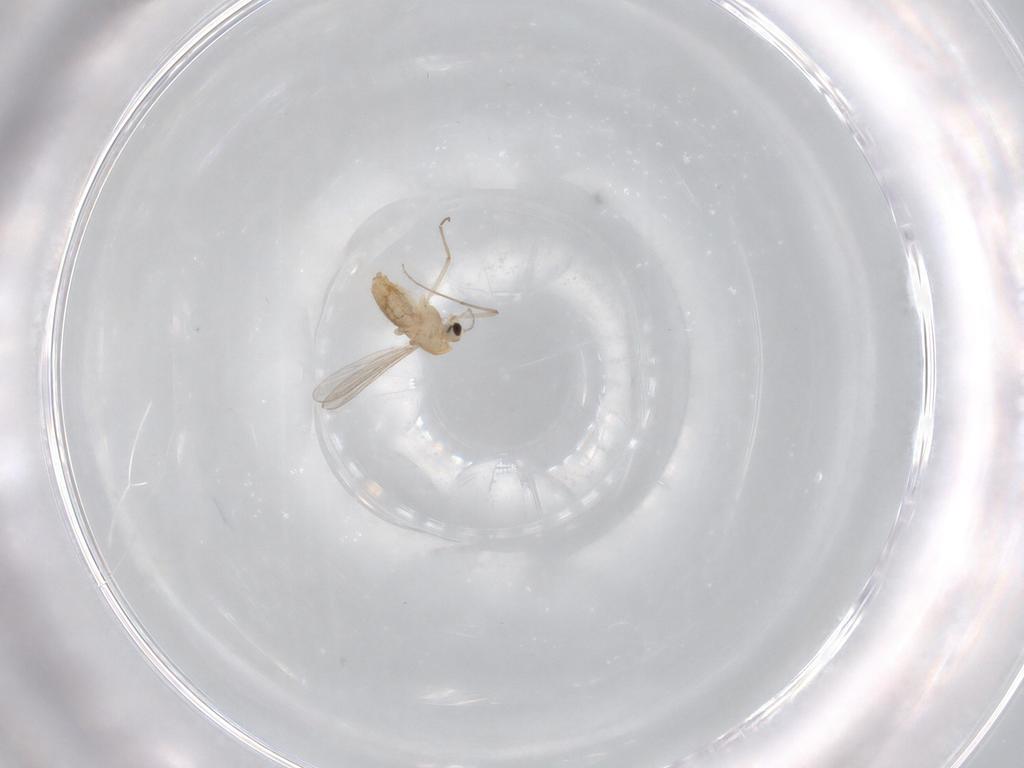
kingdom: Animalia
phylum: Arthropoda
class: Insecta
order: Diptera
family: Chironomidae
